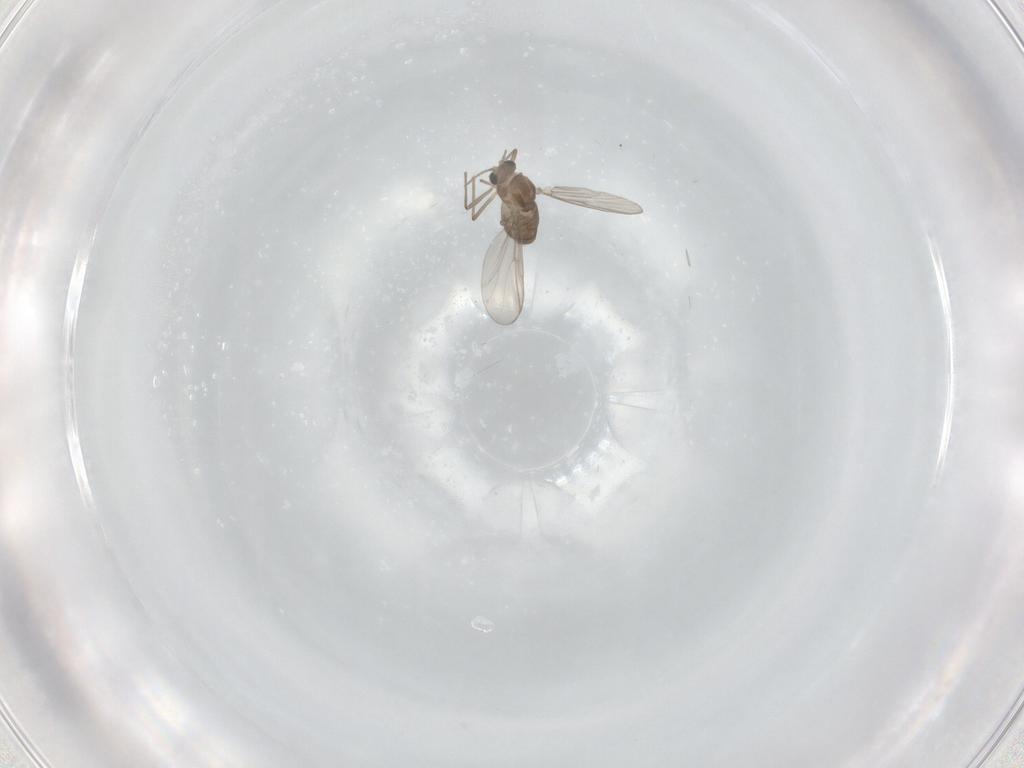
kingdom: Animalia
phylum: Arthropoda
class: Insecta
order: Diptera
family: Chironomidae
